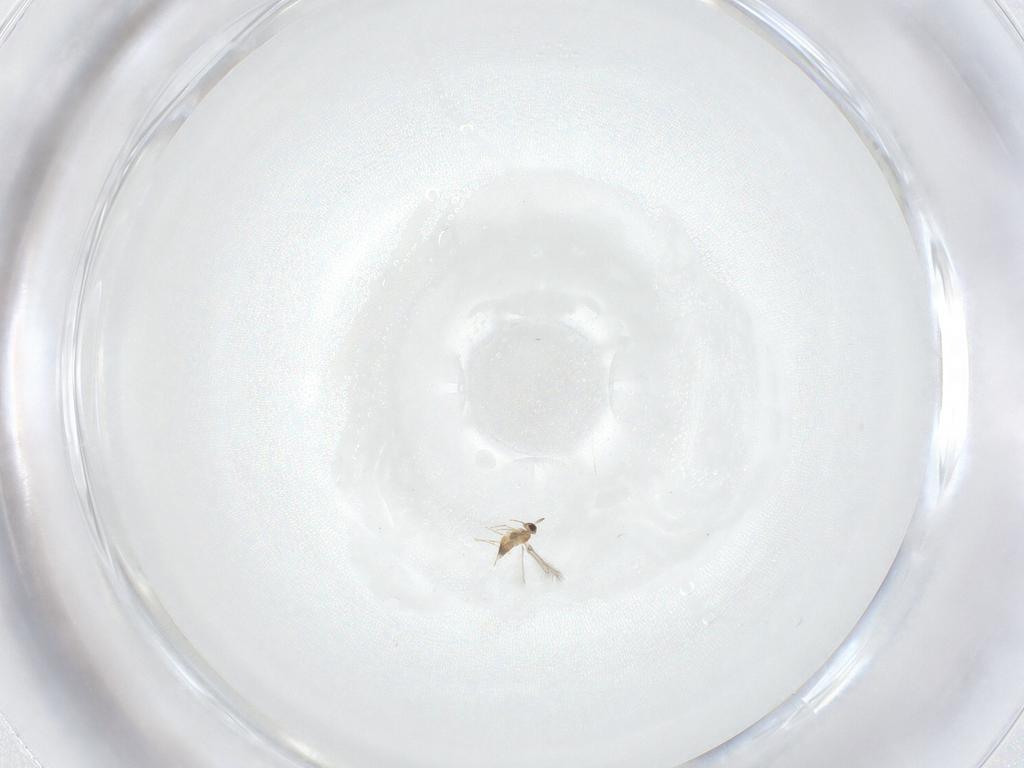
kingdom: Animalia
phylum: Arthropoda
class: Insecta
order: Hymenoptera
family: Mymaridae
